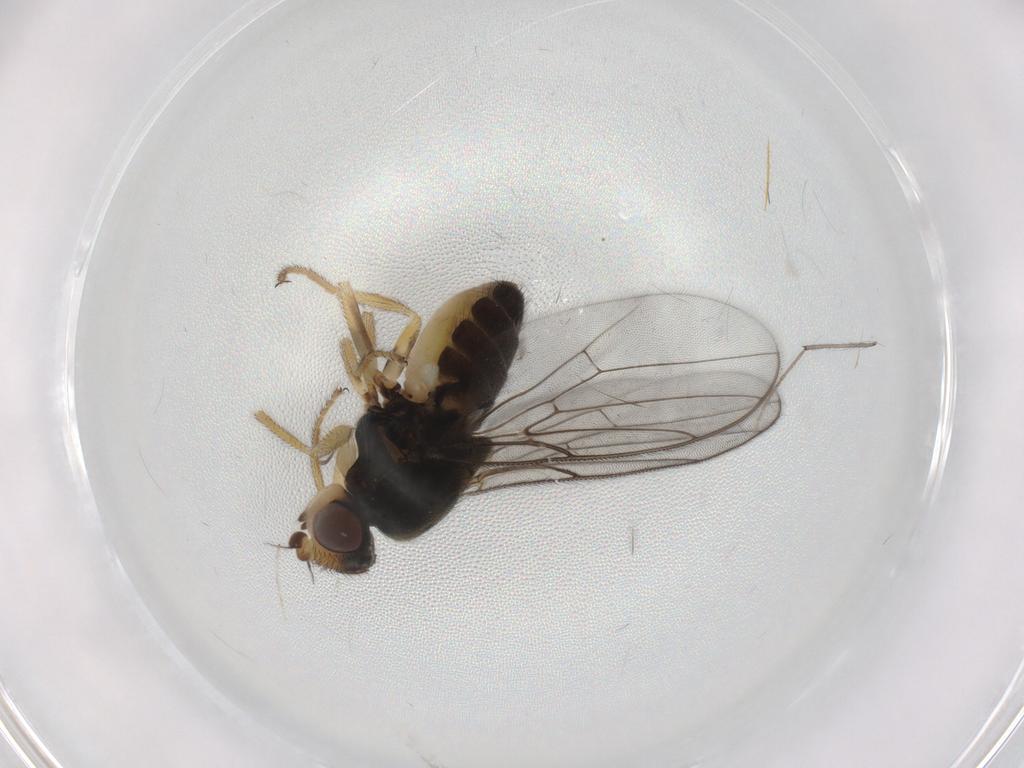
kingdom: Animalia
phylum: Arthropoda
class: Insecta
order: Diptera
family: Chloropidae
